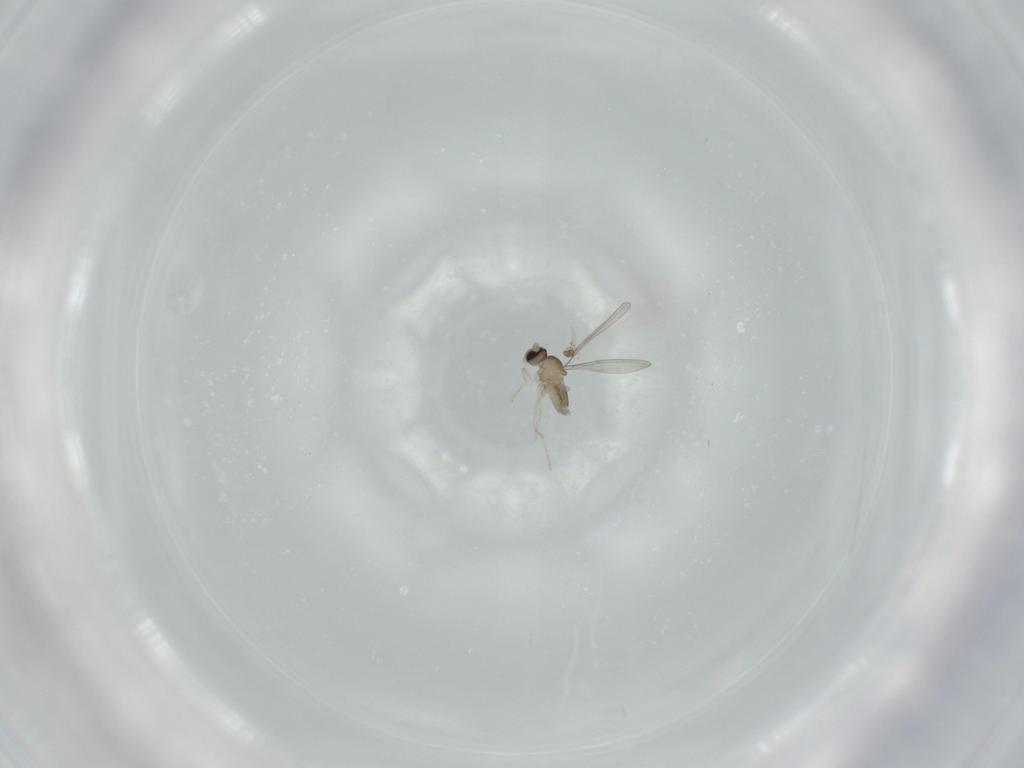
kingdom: Animalia
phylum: Arthropoda
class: Insecta
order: Diptera
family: Cecidomyiidae
